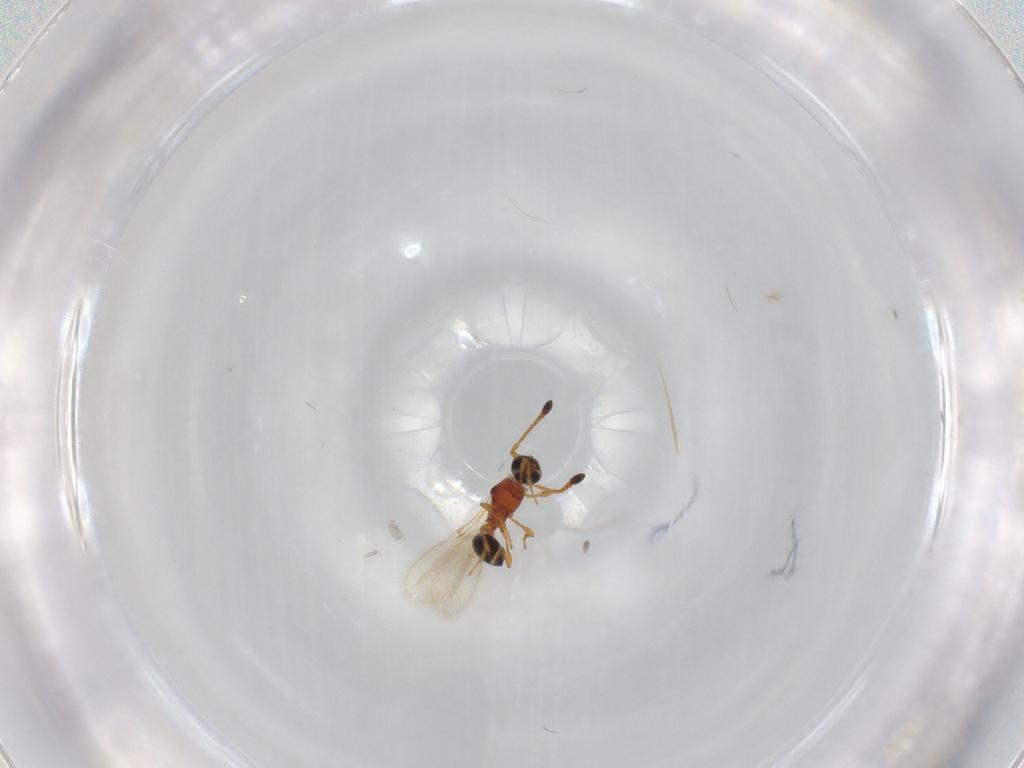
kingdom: Animalia
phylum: Arthropoda
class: Insecta
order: Hymenoptera
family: Diapriidae
